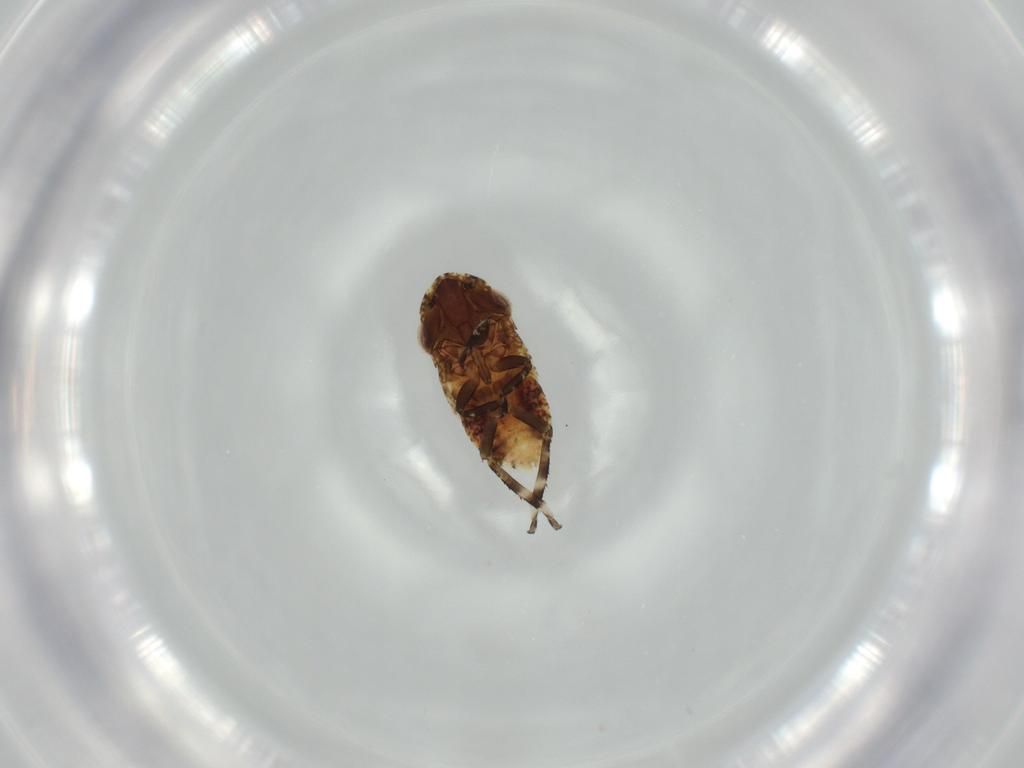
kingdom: Animalia
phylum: Arthropoda
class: Insecta
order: Hemiptera
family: Cicadellidae
